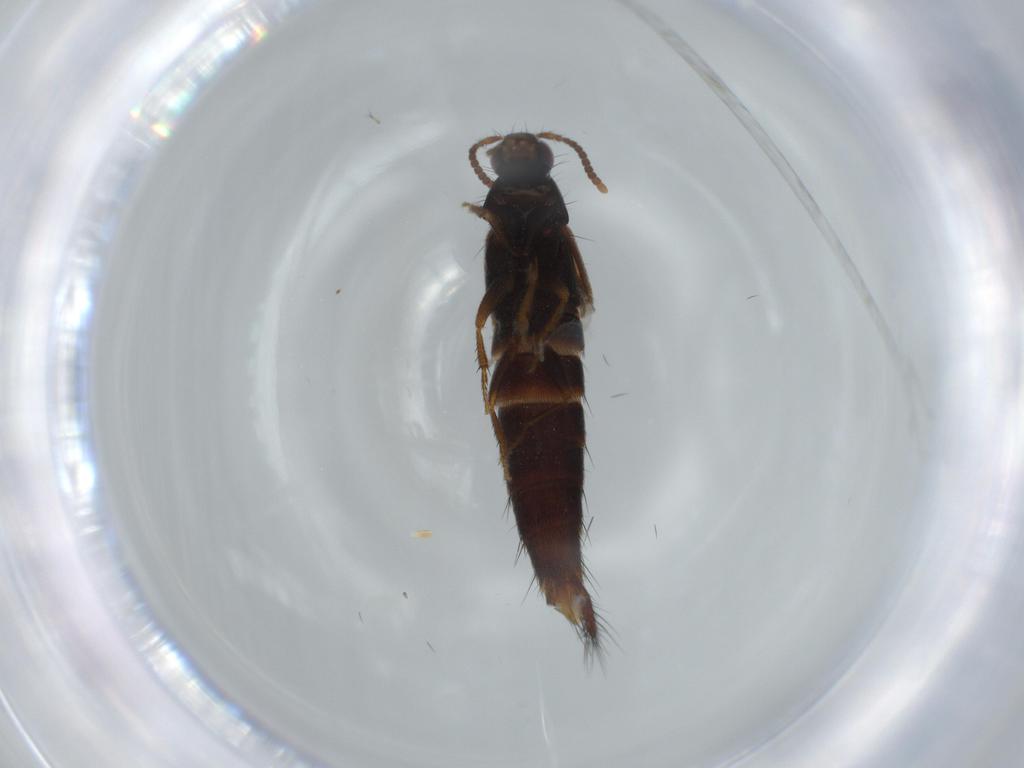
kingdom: Animalia
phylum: Arthropoda
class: Insecta
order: Coleoptera
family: Staphylinidae
